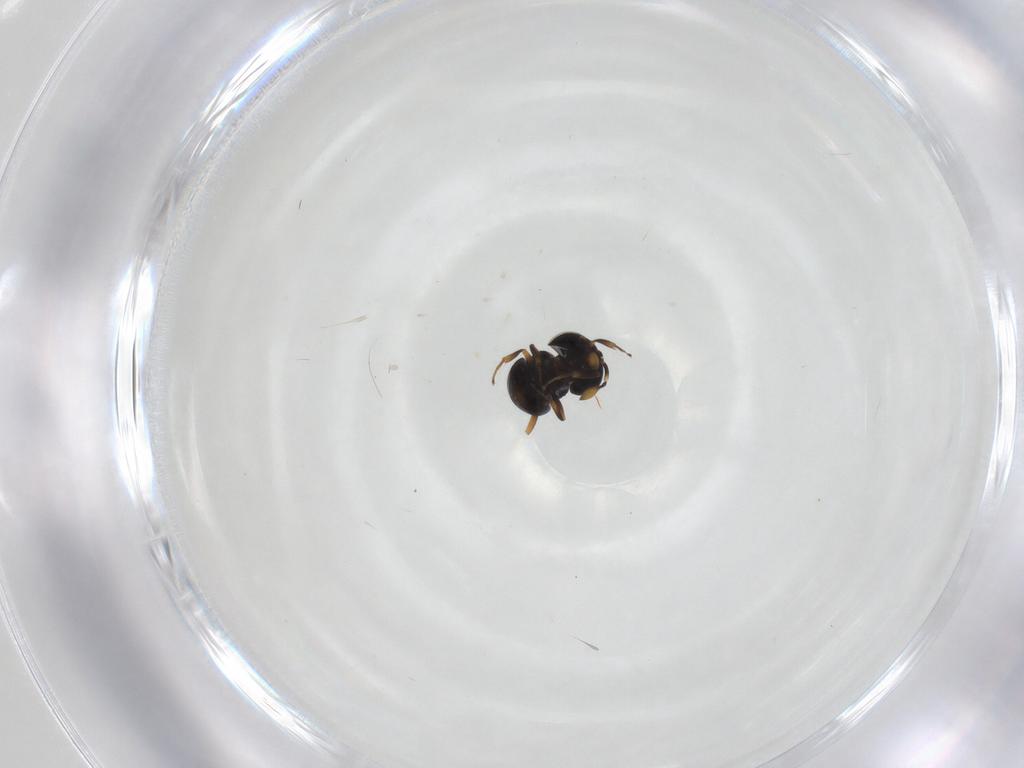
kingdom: Animalia
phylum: Arthropoda
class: Insecta
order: Hymenoptera
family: Scelionidae
